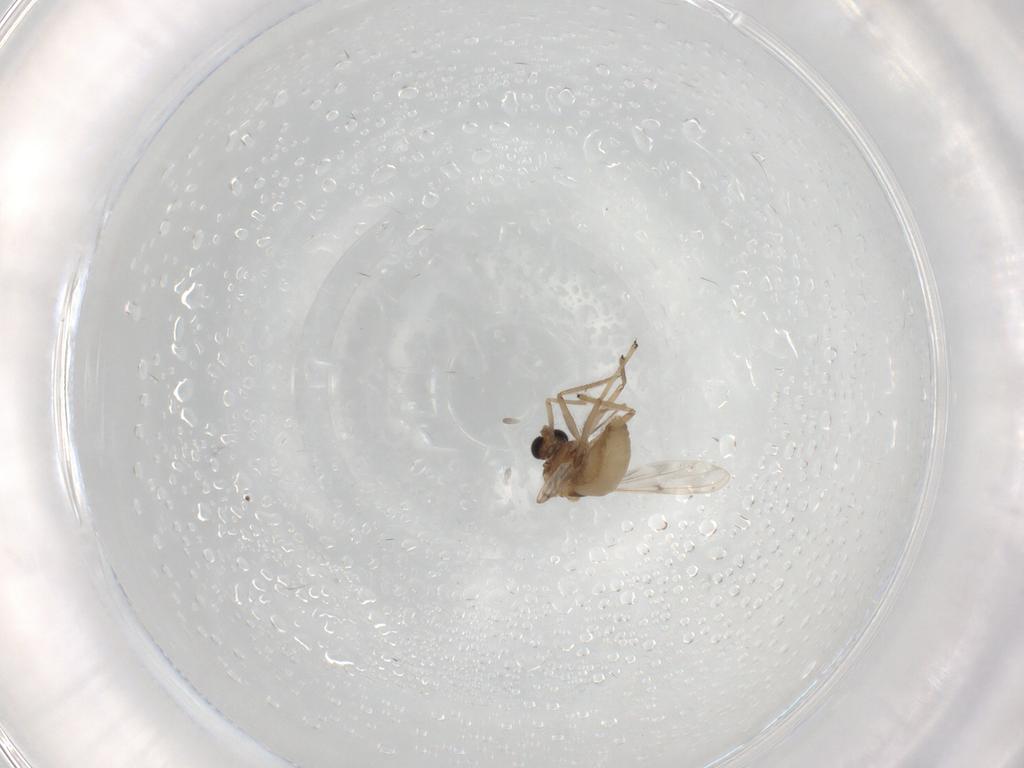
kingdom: Animalia
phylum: Arthropoda
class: Insecta
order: Diptera
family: Chironomidae
